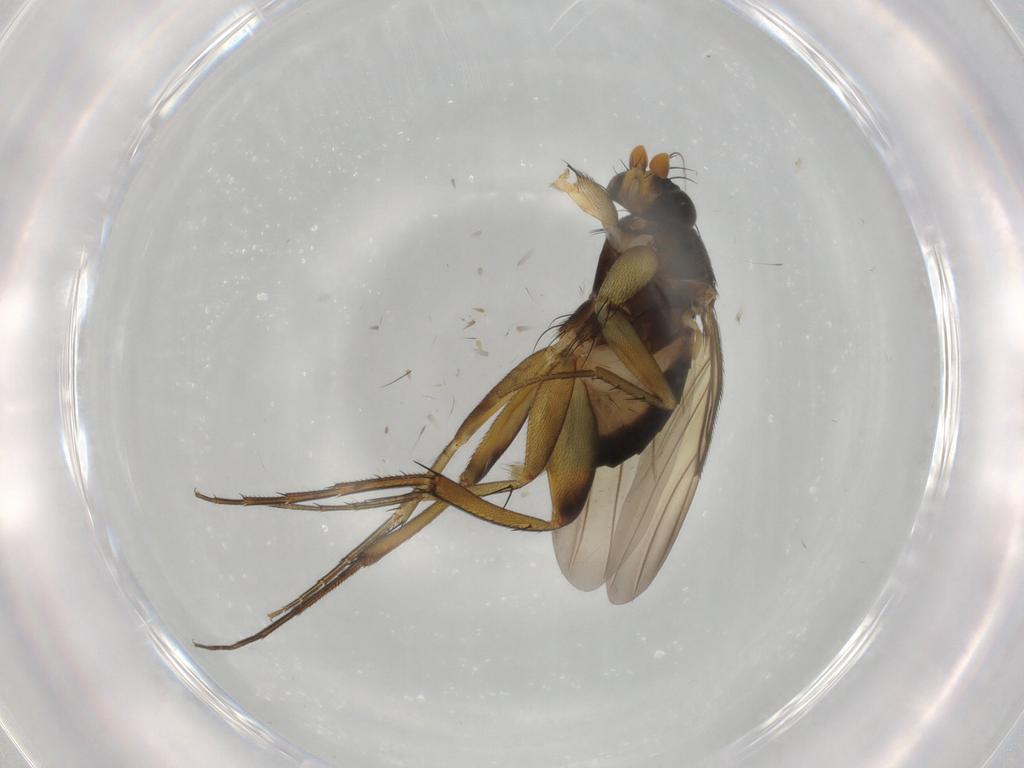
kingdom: Animalia
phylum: Arthropoda
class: Insecta
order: Diptera
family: Phoridae
